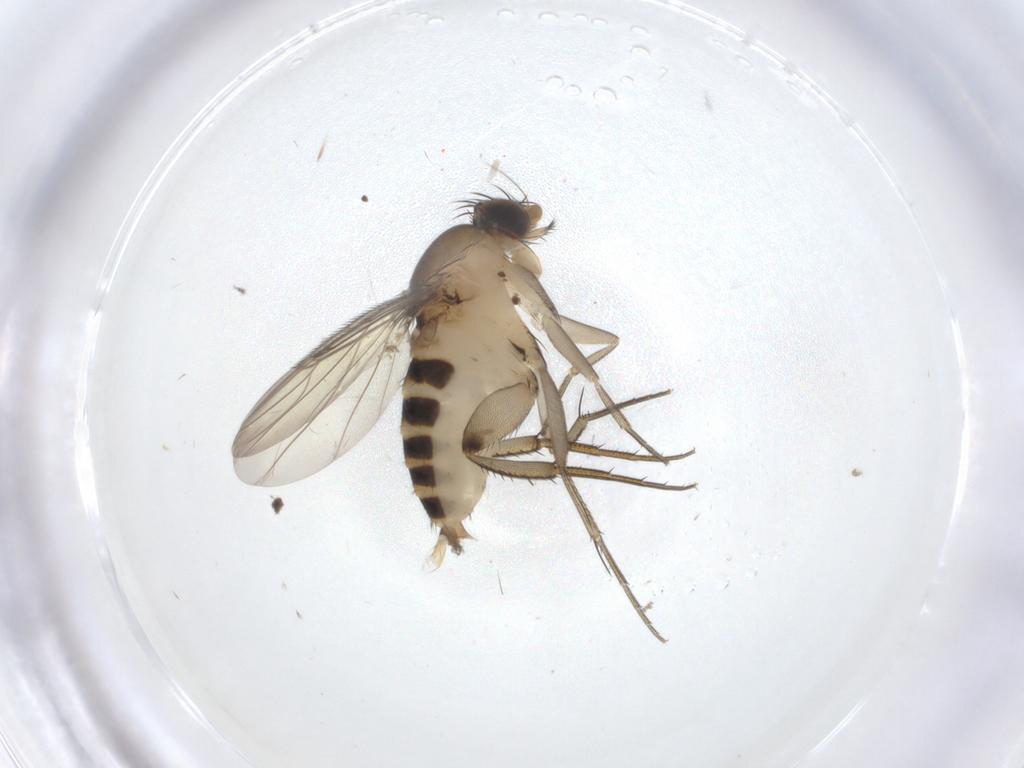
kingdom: Animalia
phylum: Arthropoda
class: Insecta
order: Diptera
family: Phoridae
